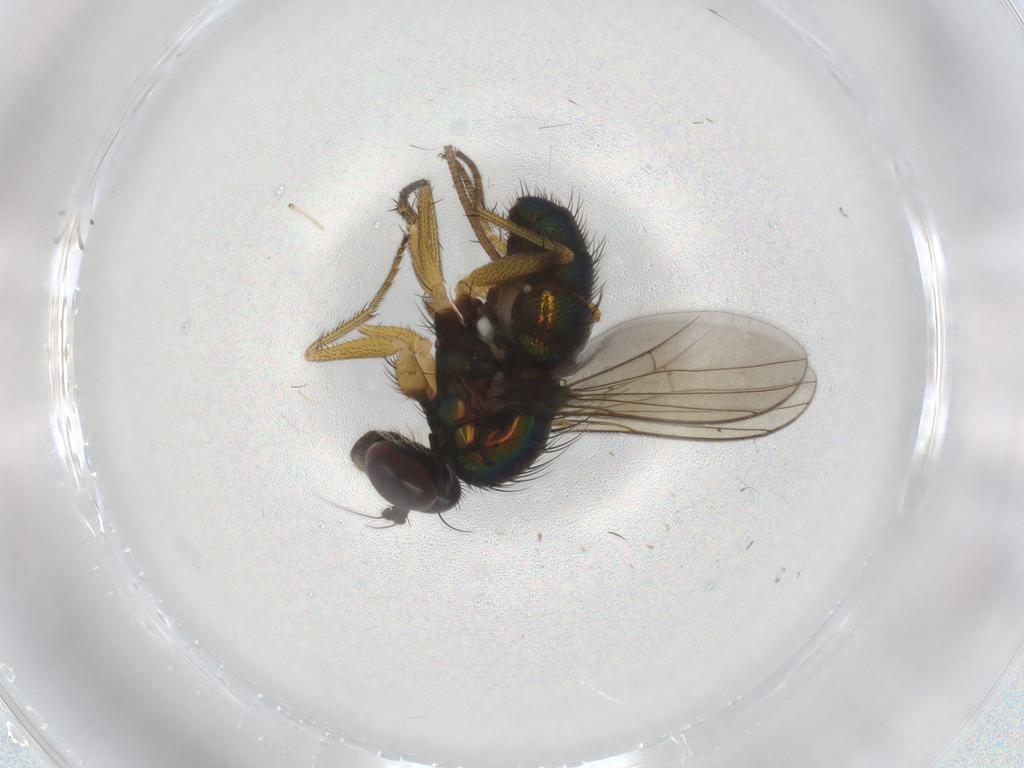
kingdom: Animalia
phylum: Arthropoda
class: Insecta
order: Diptera
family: Dolichopodidae
